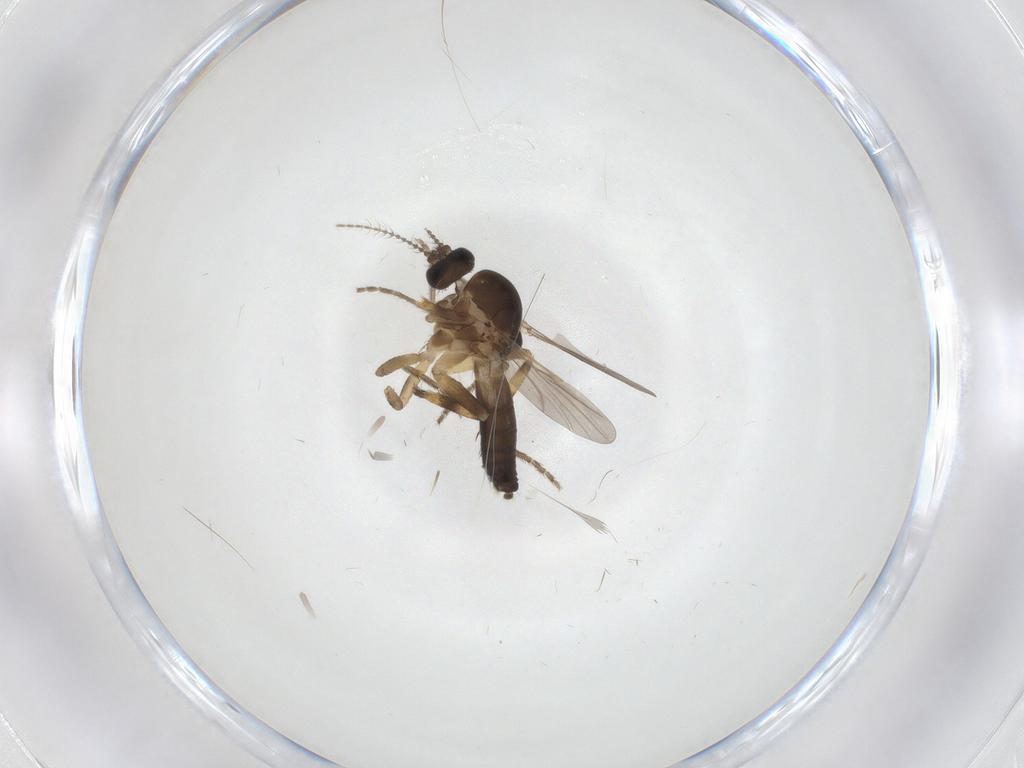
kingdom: Animalia
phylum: Arthropoda
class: Insecta
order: Diptera
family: Ceratopogonidae
